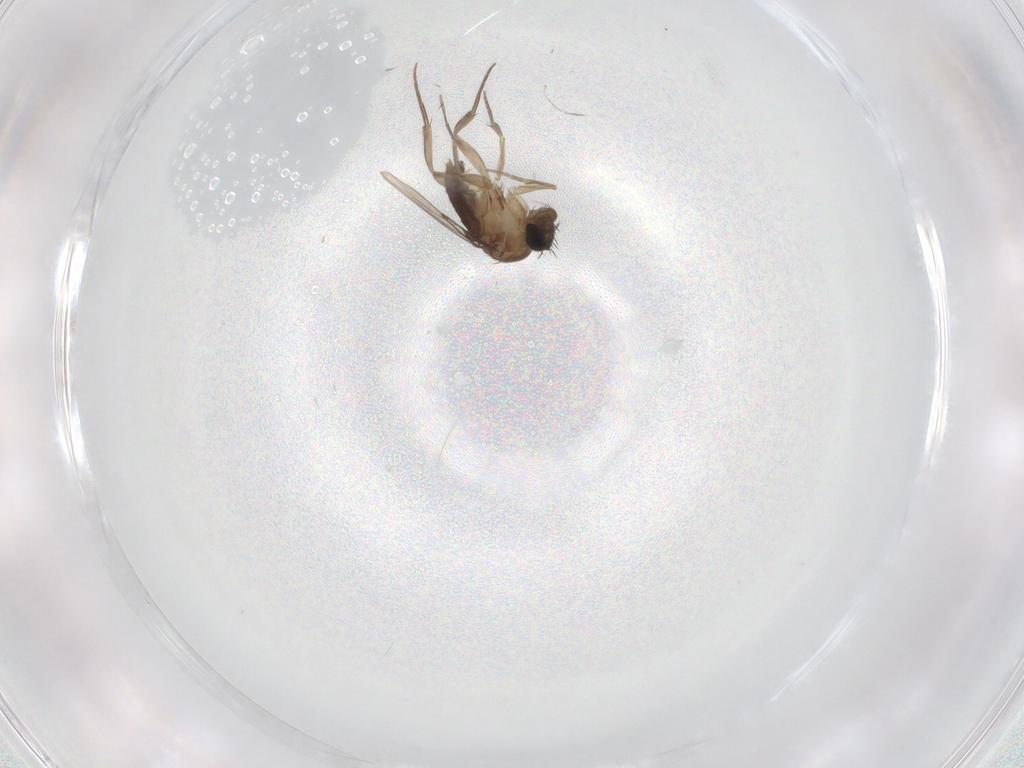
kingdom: Animalia
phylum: Arthropoda
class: Insecta
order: Diptera
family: Phoridae
